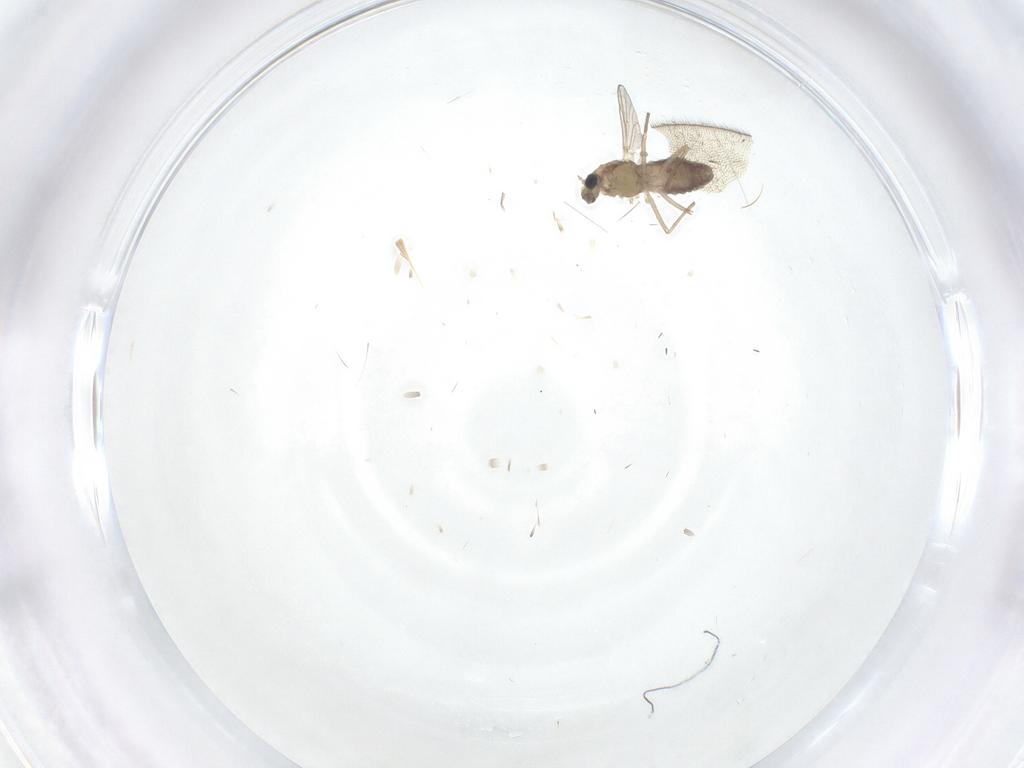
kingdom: Animalia
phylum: Arthropoda
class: Insecta
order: Diptera
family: Chironomidae
